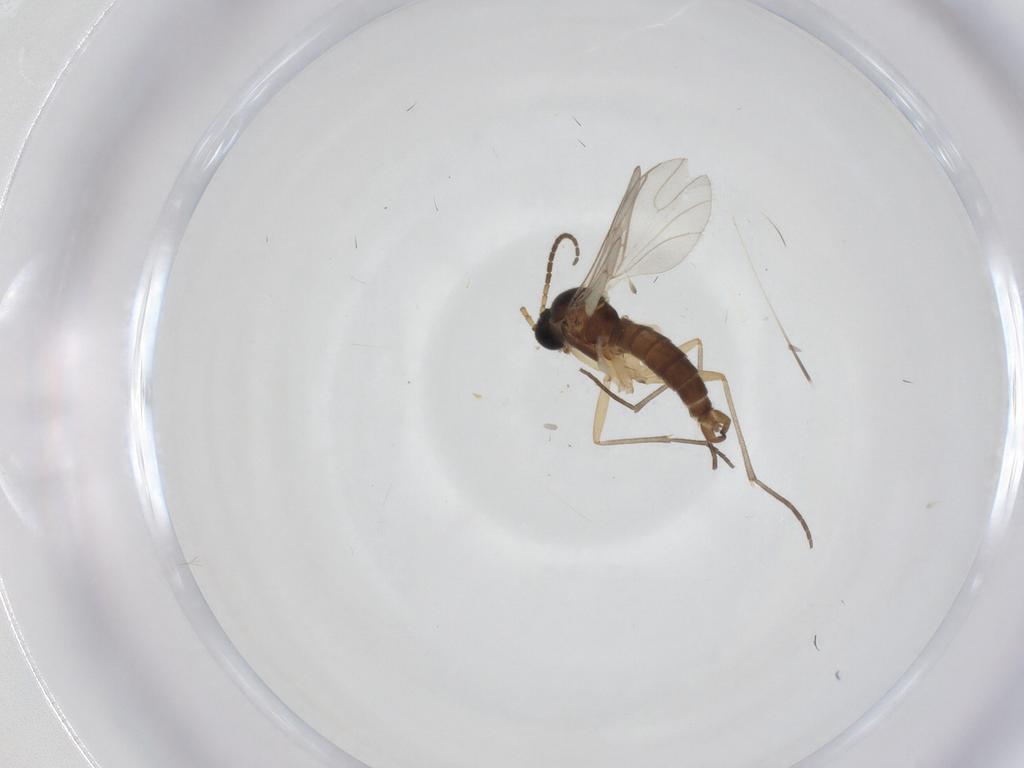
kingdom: Animalia
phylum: Arthropoda
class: Insecta
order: Diptera
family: Sciaridae
